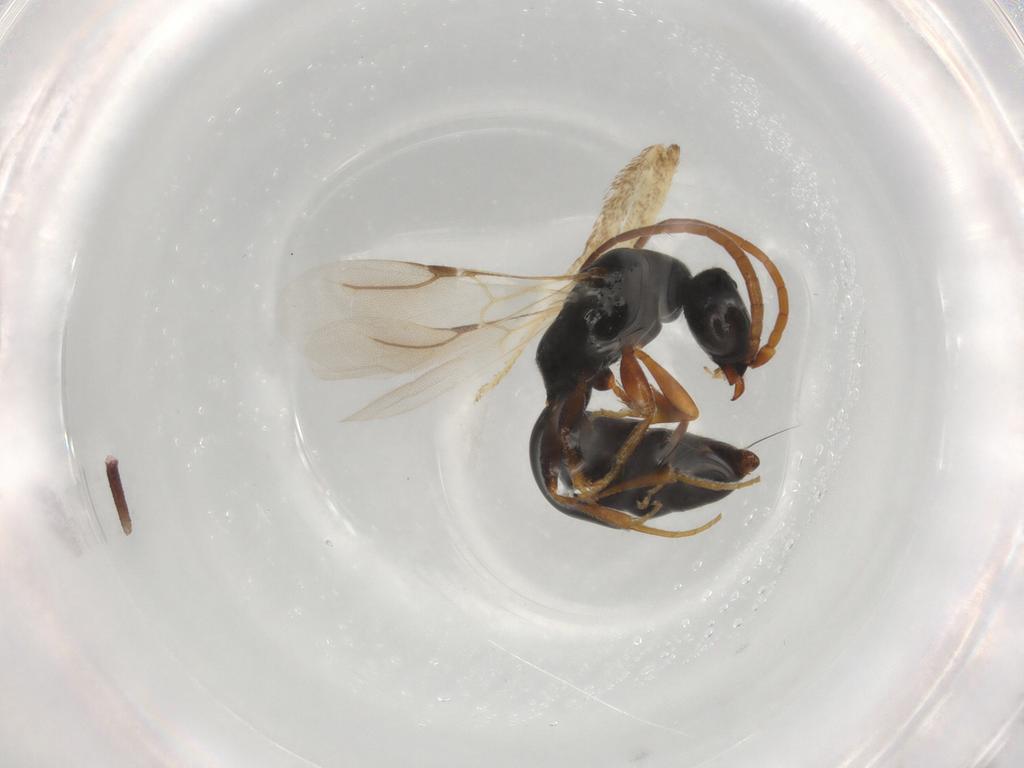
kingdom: Animalia
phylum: Arthropoda
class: Insecta
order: Hymenoptera
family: Bethylidae
